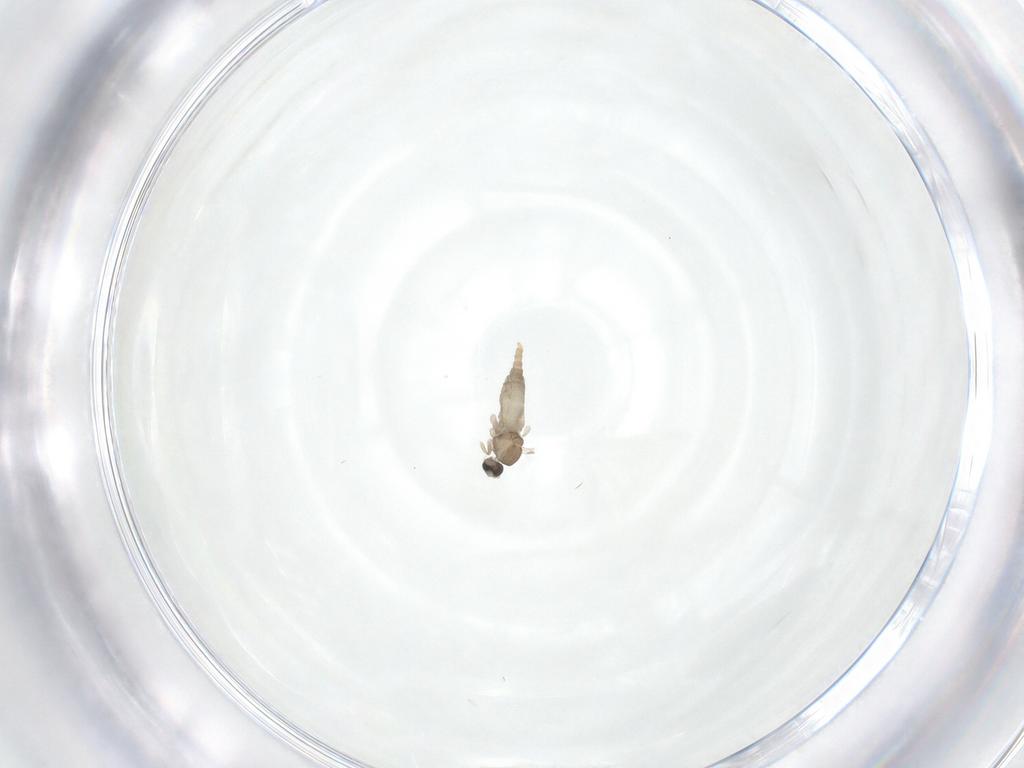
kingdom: Animalia
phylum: Arthropoda
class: Insecta
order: Diptera
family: Cecidomyiidae
